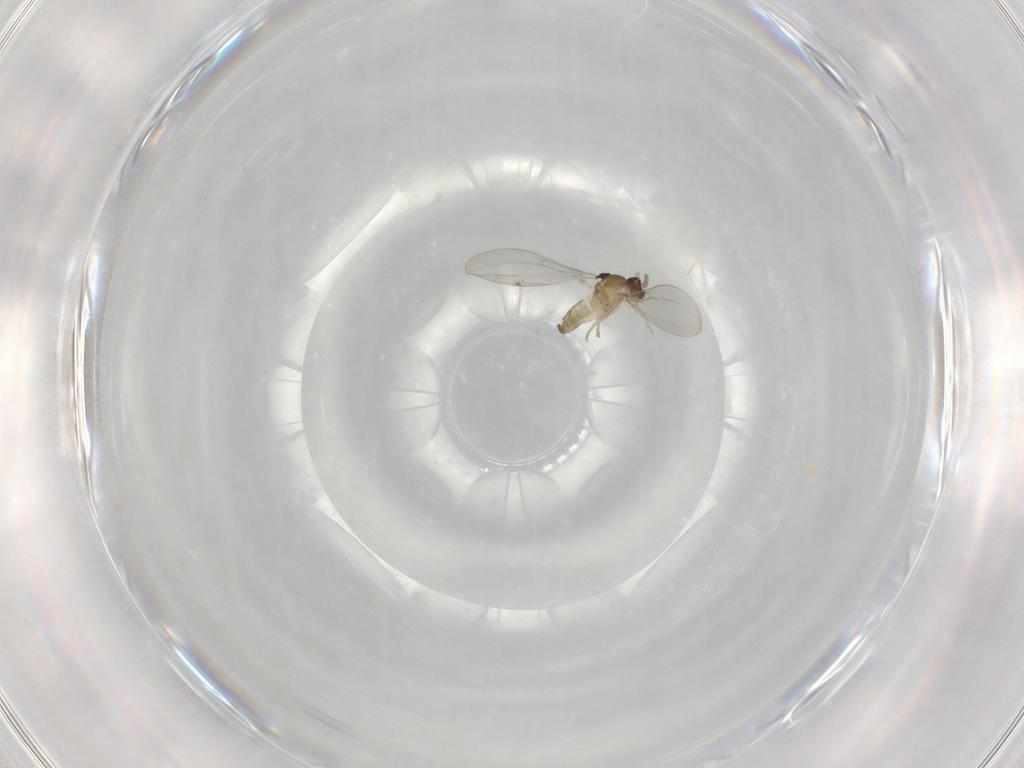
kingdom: Animalia
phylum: Arthropoda
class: Insecta
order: Diptera
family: Cecidomyiidae
